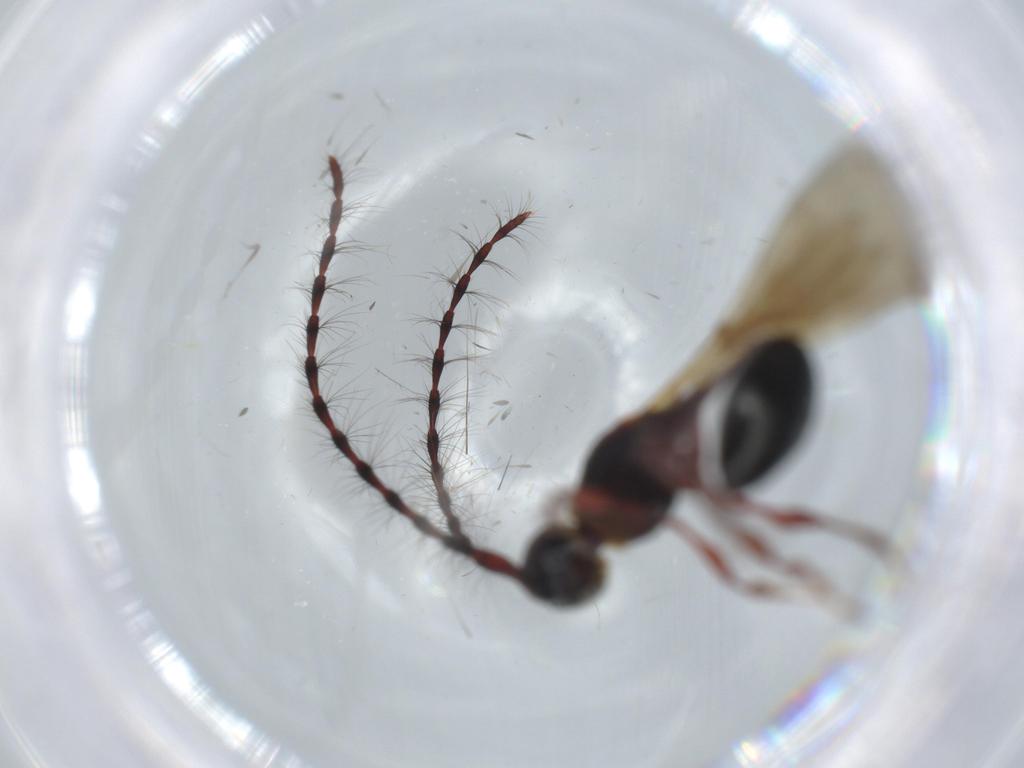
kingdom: Animalia
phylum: Arthropoda
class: Insecta
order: Hymenoptera
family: Diapriidae
